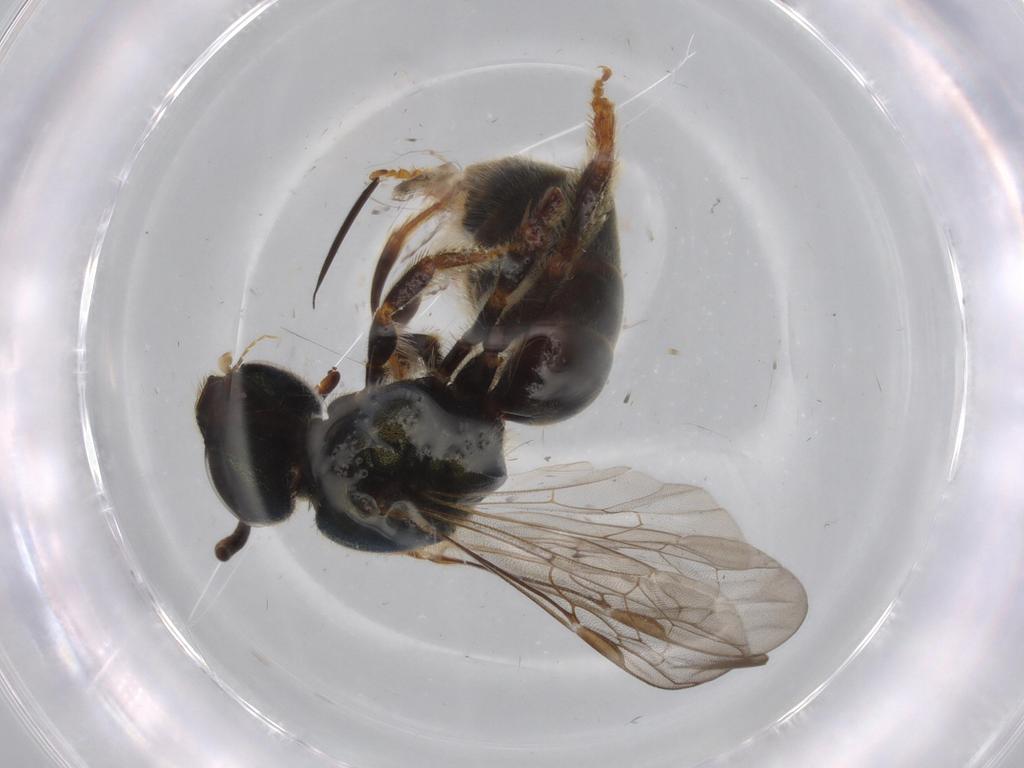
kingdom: Animalia
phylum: Arthropoda
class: Insecta
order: Hymenoptera
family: Halictidae
